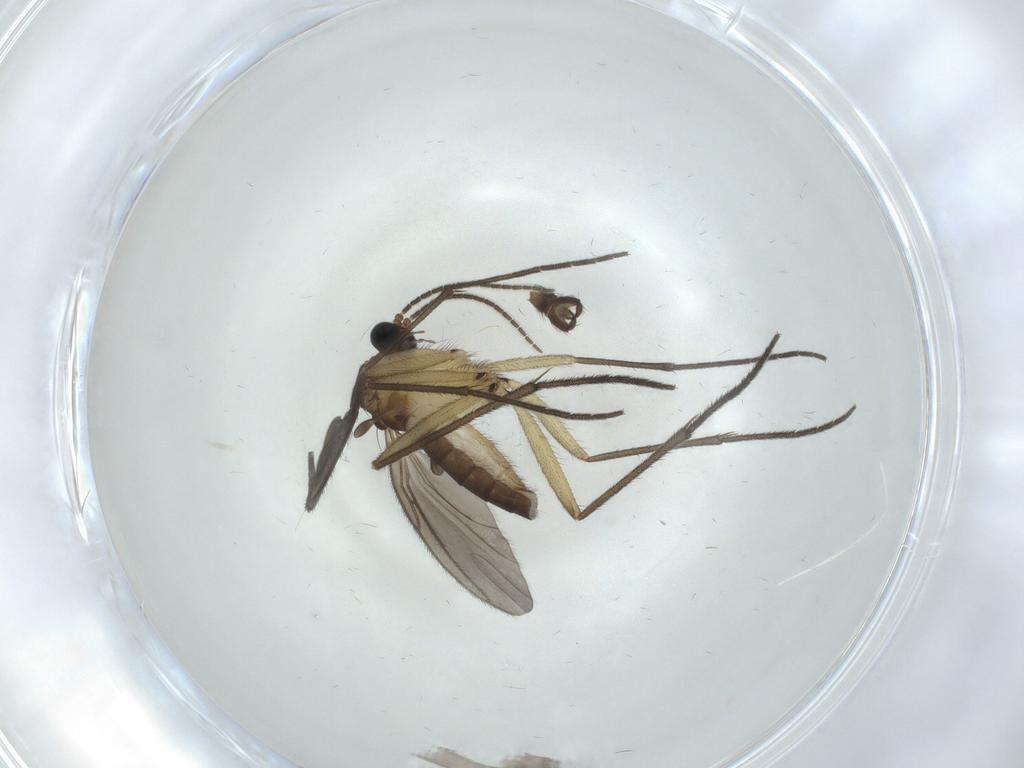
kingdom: Animalia
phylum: Arthropoda
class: Insecta
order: Diptera
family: Sciaridae
